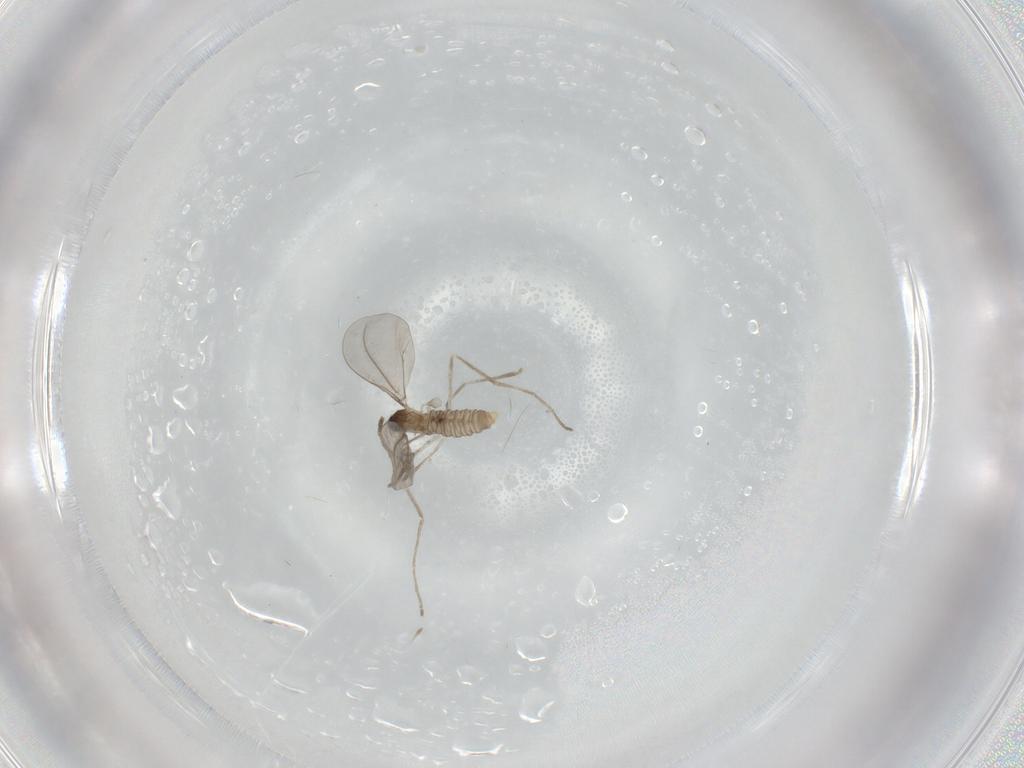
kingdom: Animalia
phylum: Arthropoda
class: Insecta
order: Diptera
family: Cecidomyiidae
